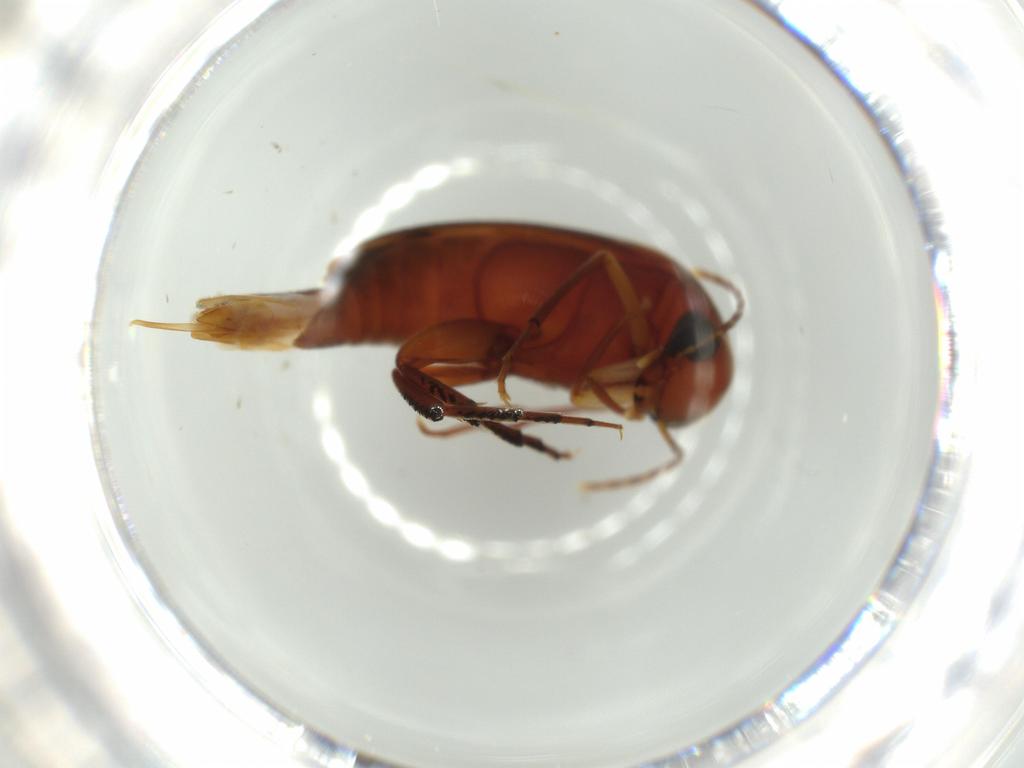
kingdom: Animalia
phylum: Arthropoda
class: Insecta
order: Coleoptera
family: Mordellidae
